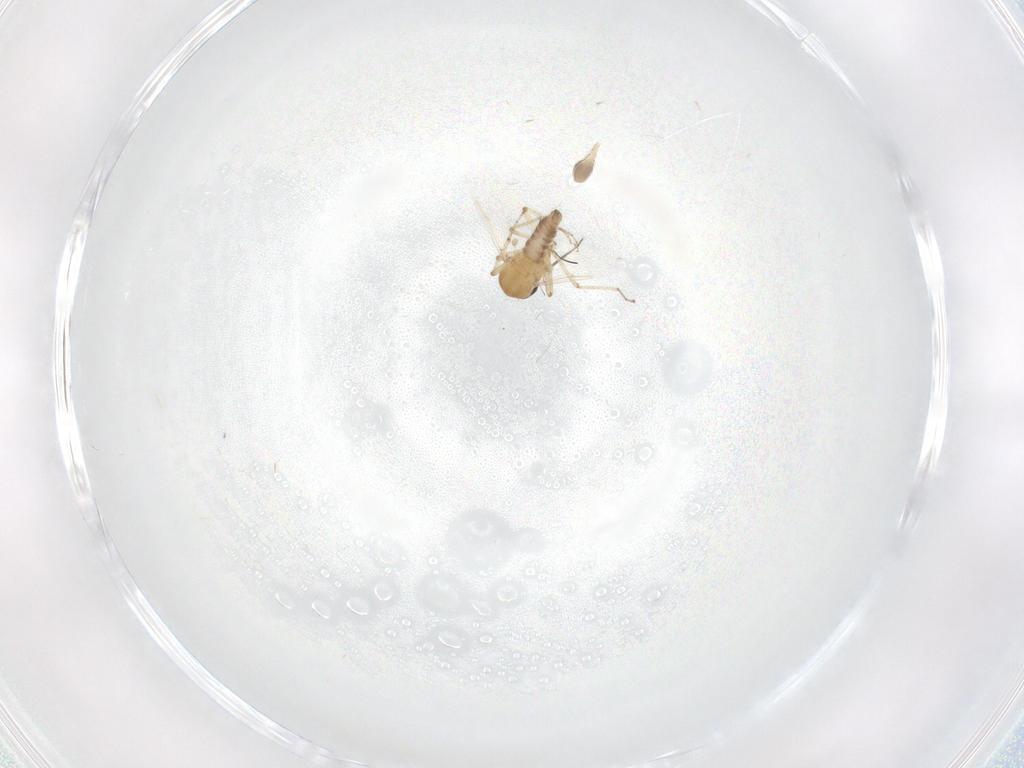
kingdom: Animalia
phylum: Arthropoda
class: Insecta
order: Diptera
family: Keroplatidae
